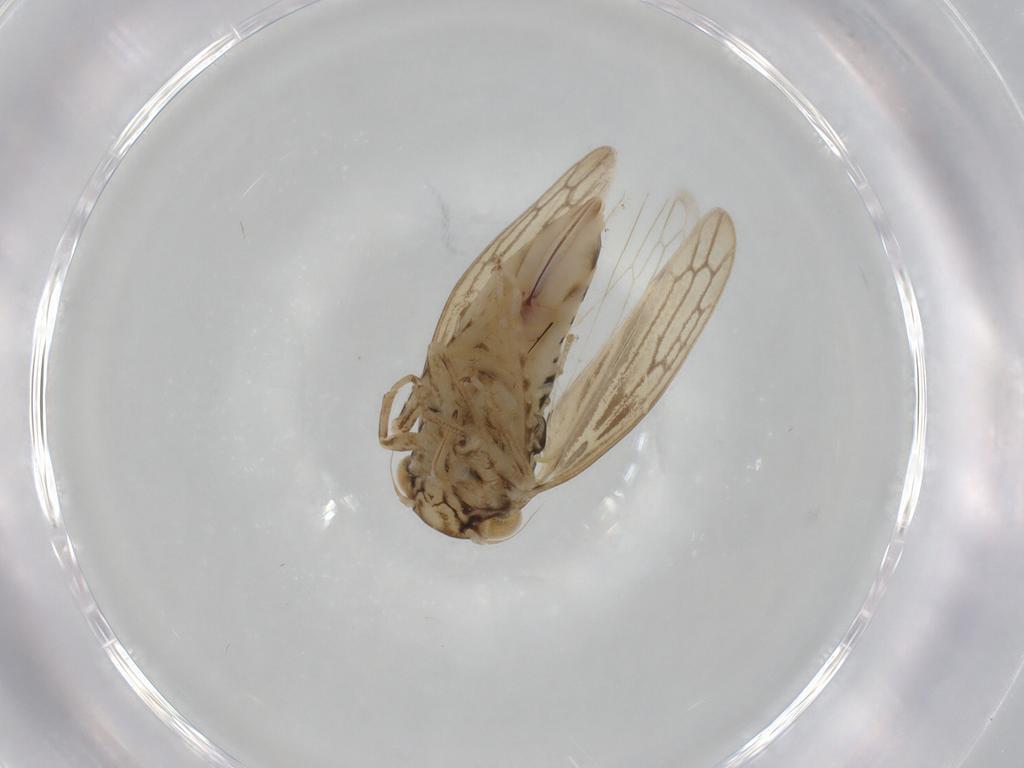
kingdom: Animalia
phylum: Arthropoda
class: Insecta
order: Hemiptera
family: Cicadellidae
